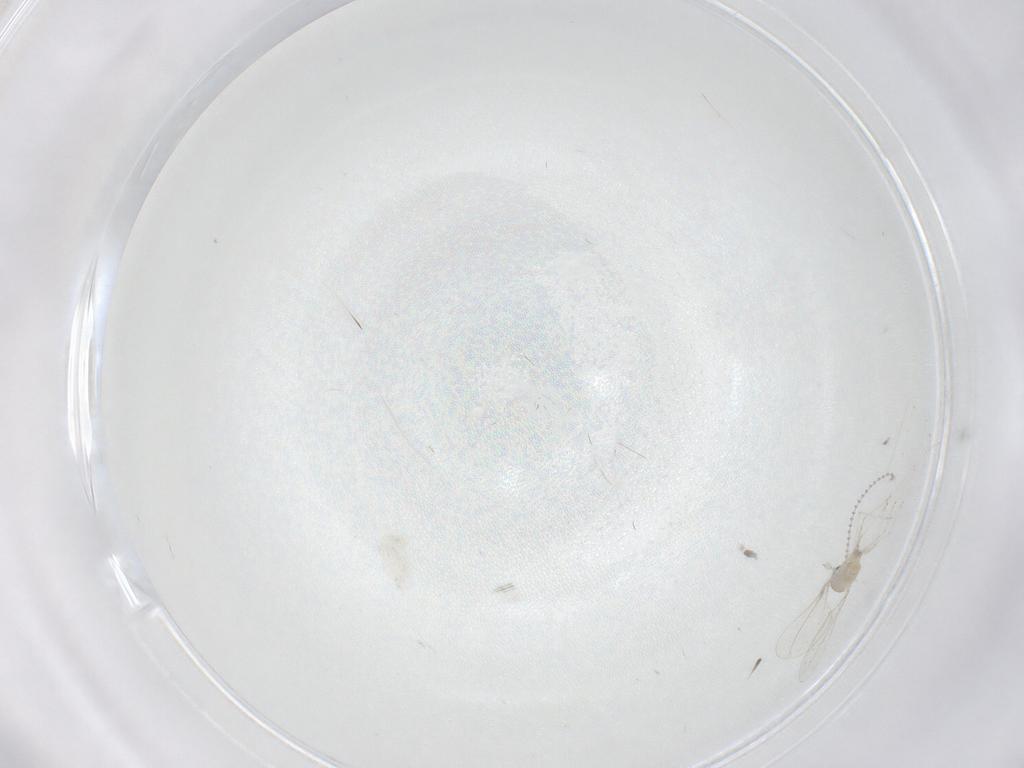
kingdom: Animalia
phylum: Arthropoda
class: Insecta
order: Diptera
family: Cecidomyiidae
